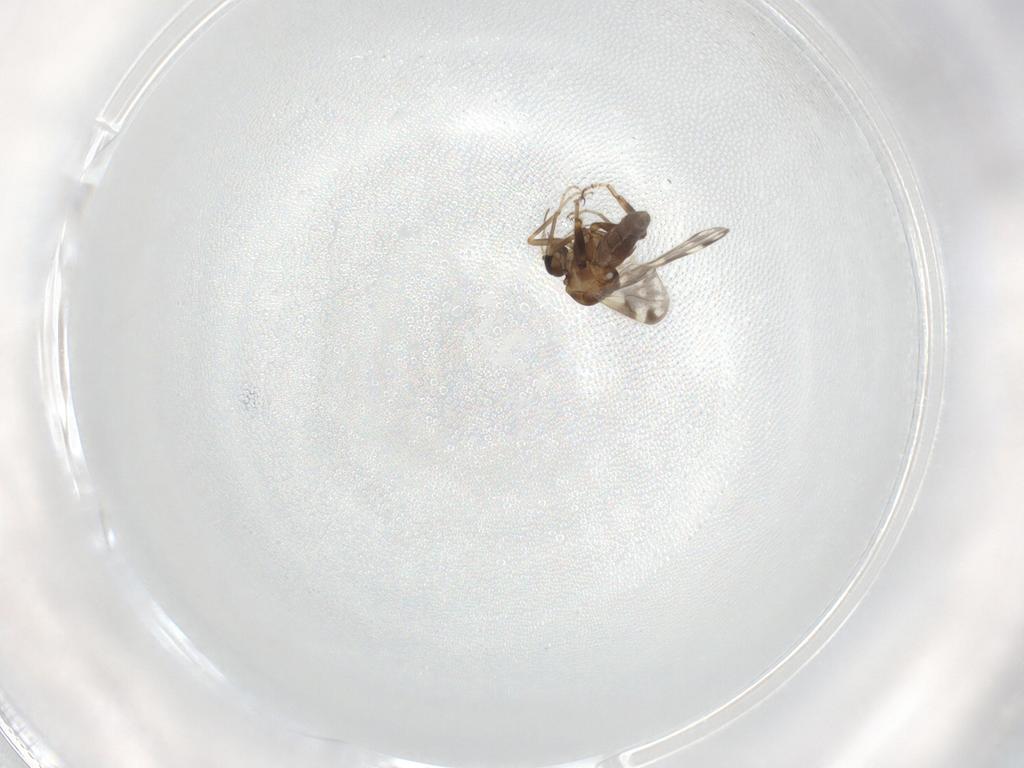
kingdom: Animalia
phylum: Arthropoda
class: Insecta
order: Diptera
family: Ceratopogonidae
